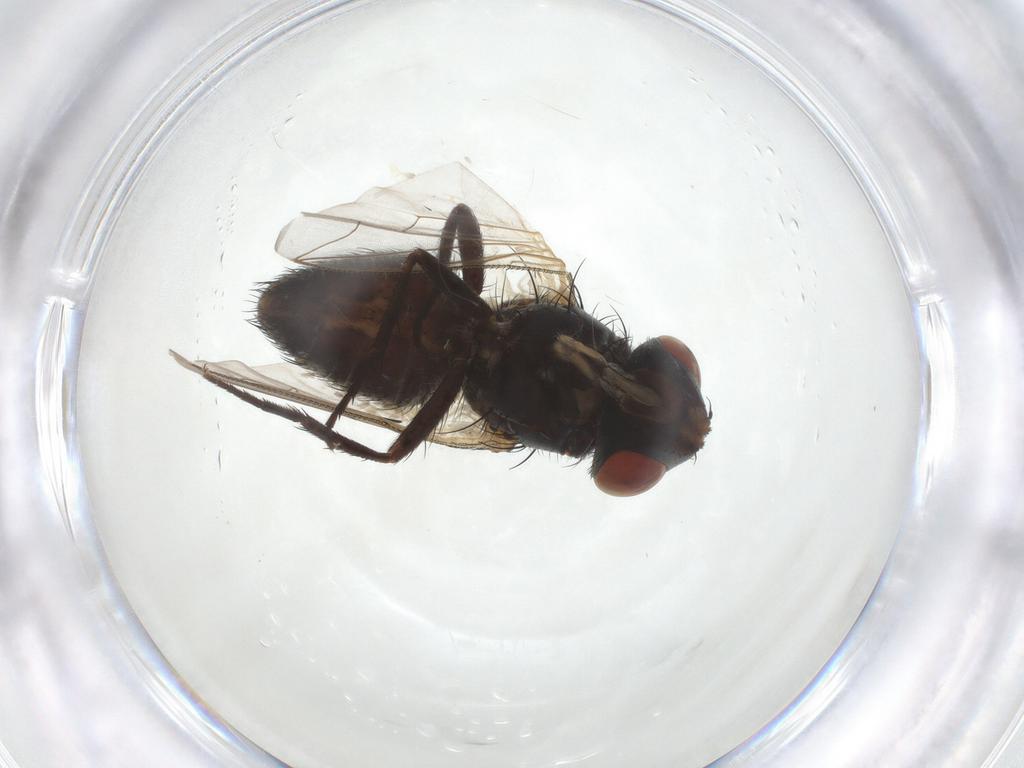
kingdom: Animalia
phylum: Arthropoda
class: Insecta
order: Diptera
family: Sarcophagidae
